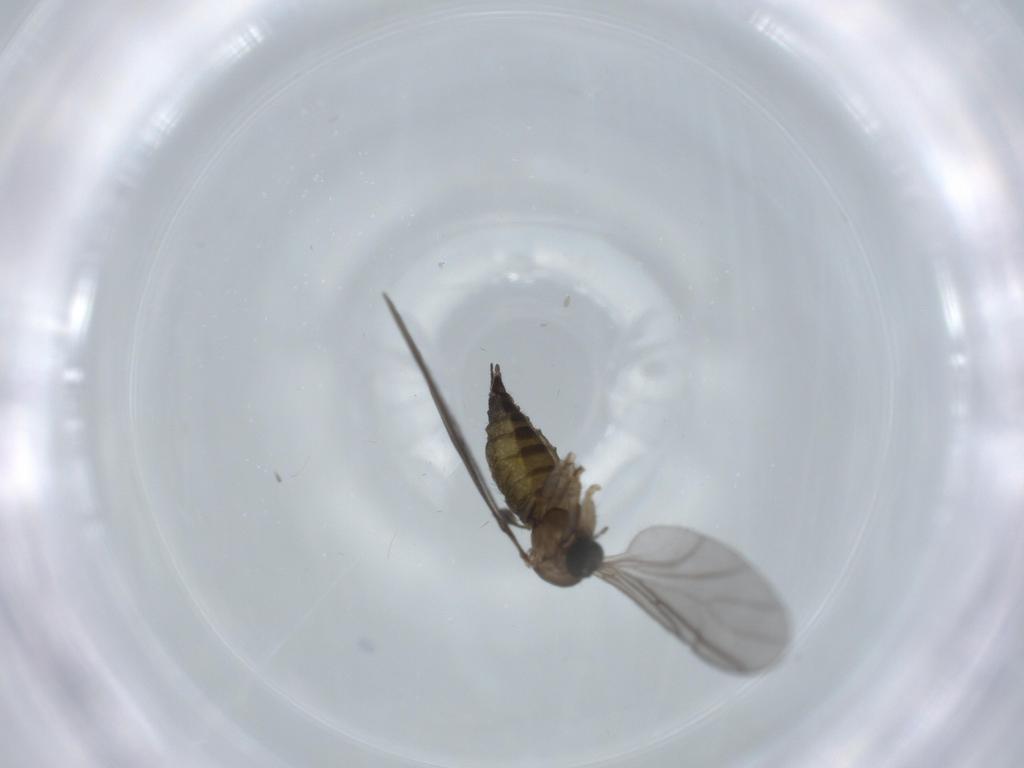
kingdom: Animalia
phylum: Arthropoda
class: Insecta
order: Diptera
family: Sciaridae
